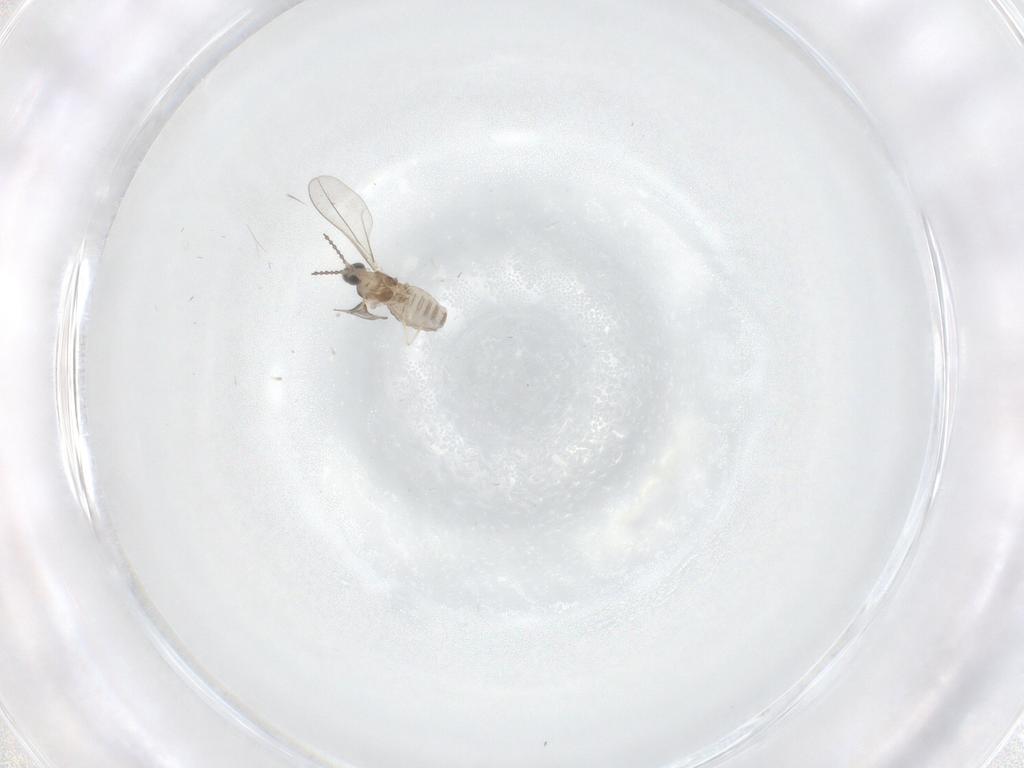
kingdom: Animalia
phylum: Arthropoda
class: Insecta
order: Diptera
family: Cecidomyiidae
